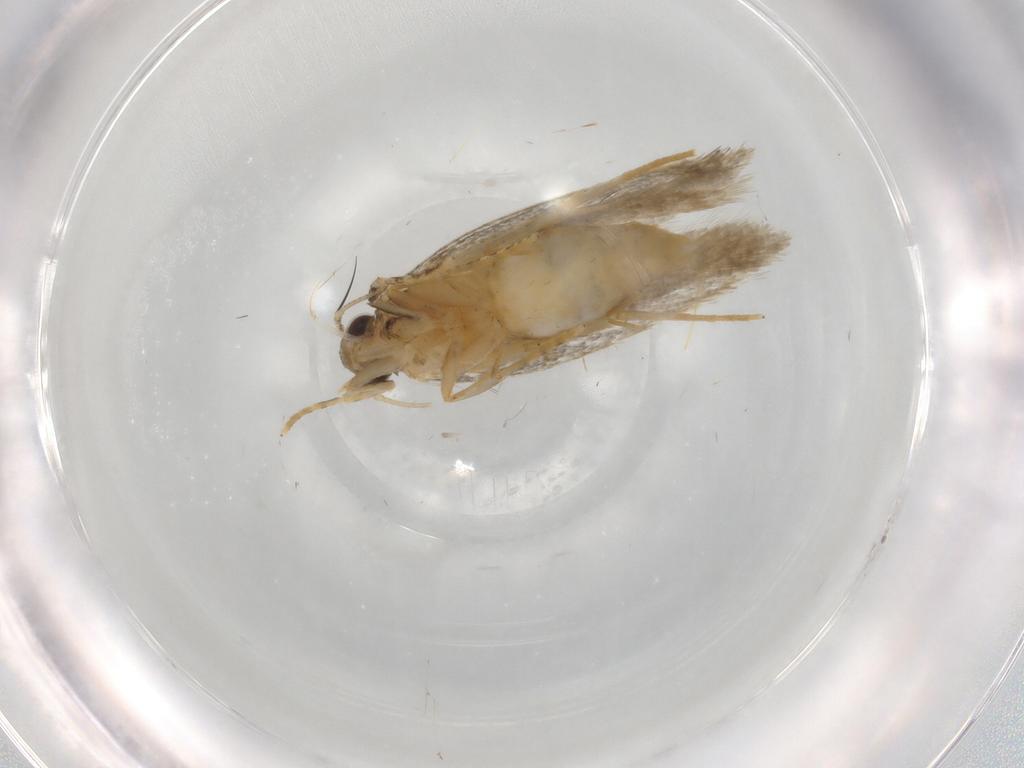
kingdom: Animalia
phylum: Arthropoda
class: Insecta
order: Lepidoptera
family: Autostichidae
